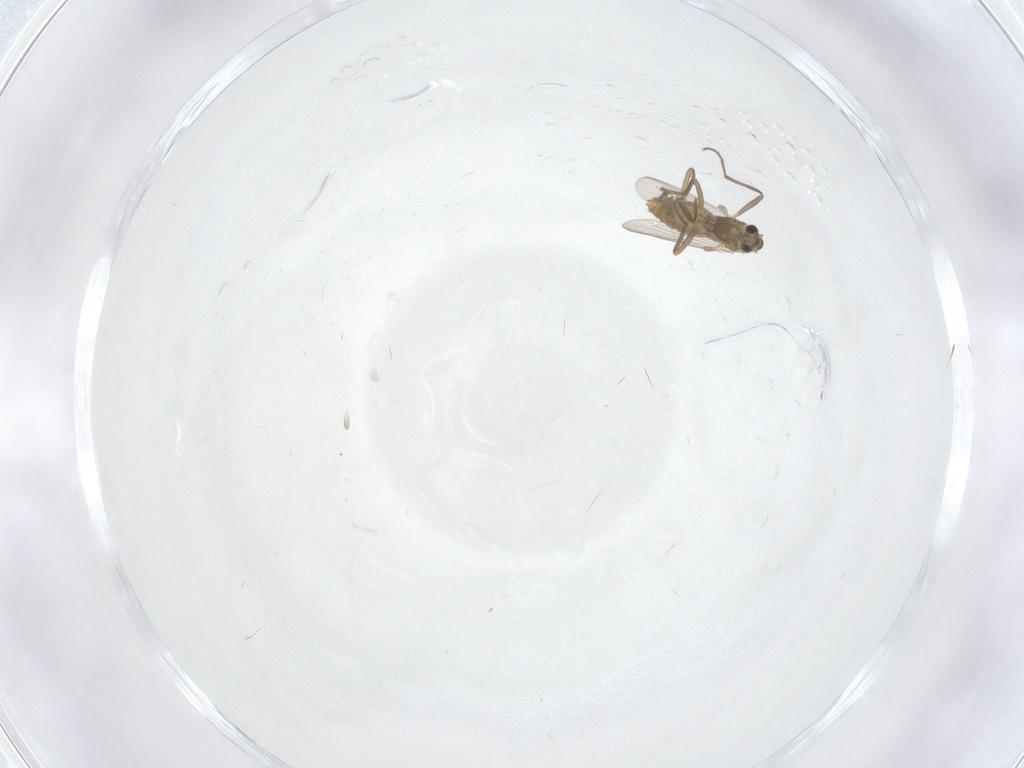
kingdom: Animalia
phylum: Arthropoda
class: Insecta
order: Diptera
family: Chironomidae
